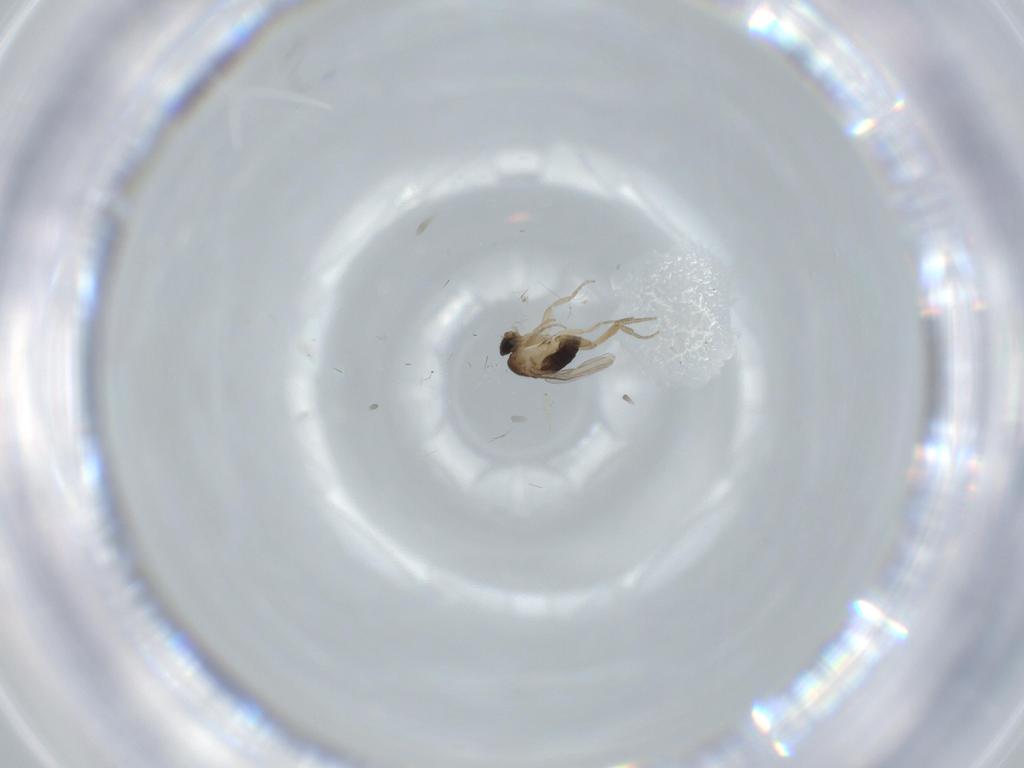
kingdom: Animalia
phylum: Arthropoda
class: Insecta
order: Diptera
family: Phoridae
